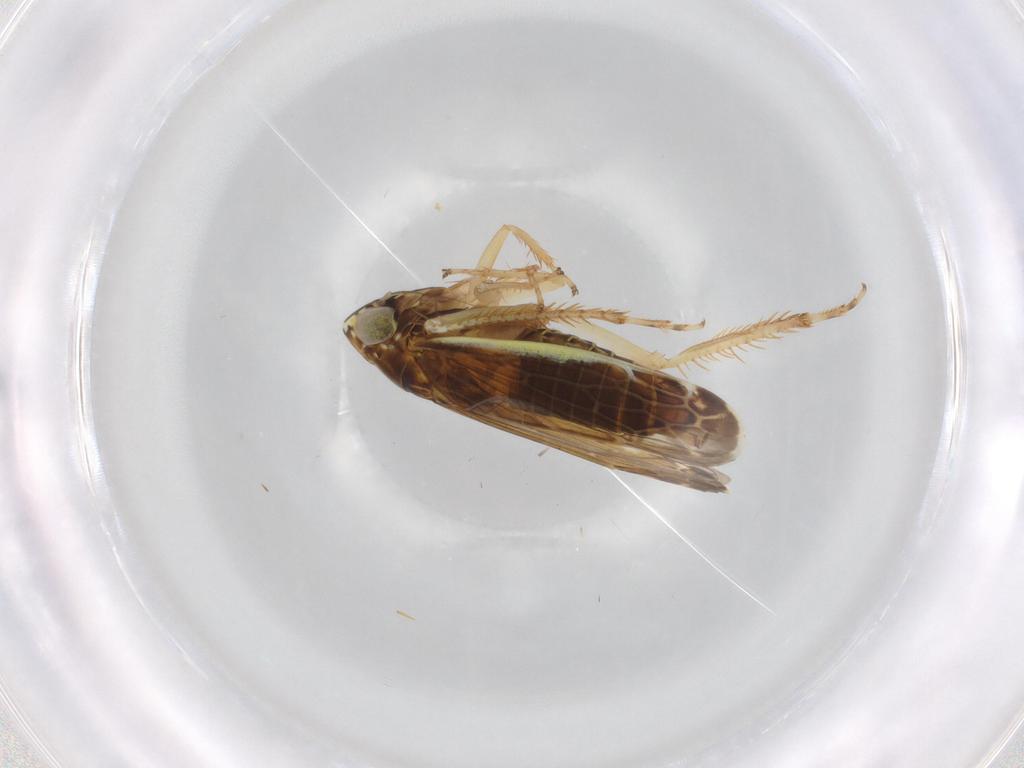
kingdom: Animalia
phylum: Arthropoda
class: Insecta
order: Hemiptera
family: Cicadellidae
